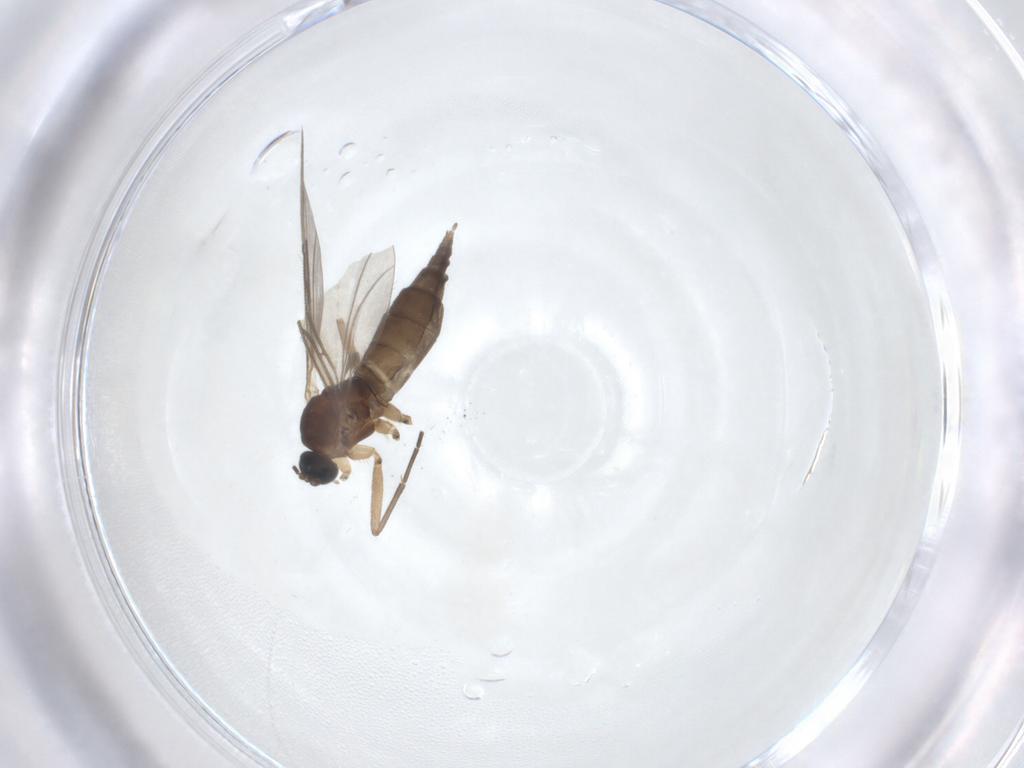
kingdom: Animalia
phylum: Arthropoda
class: Insecta
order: Diptera
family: Sciaridae
